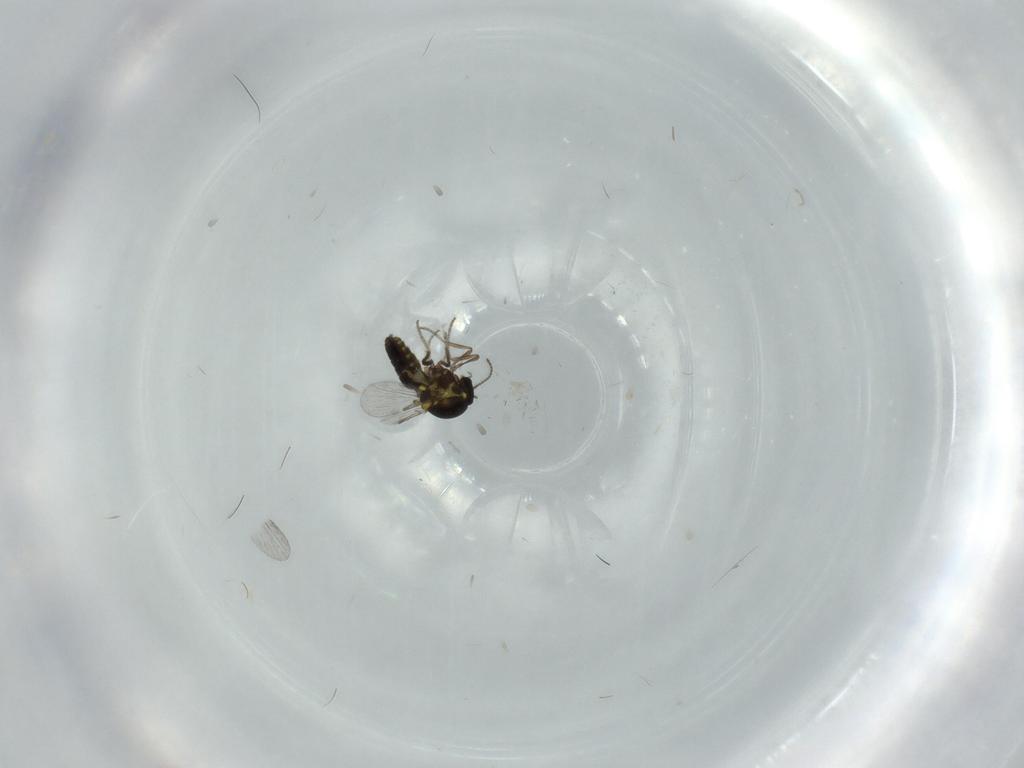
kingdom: Animalia
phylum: Arthropoda
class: Insecta
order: Diptera
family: Ceratopogonidae
